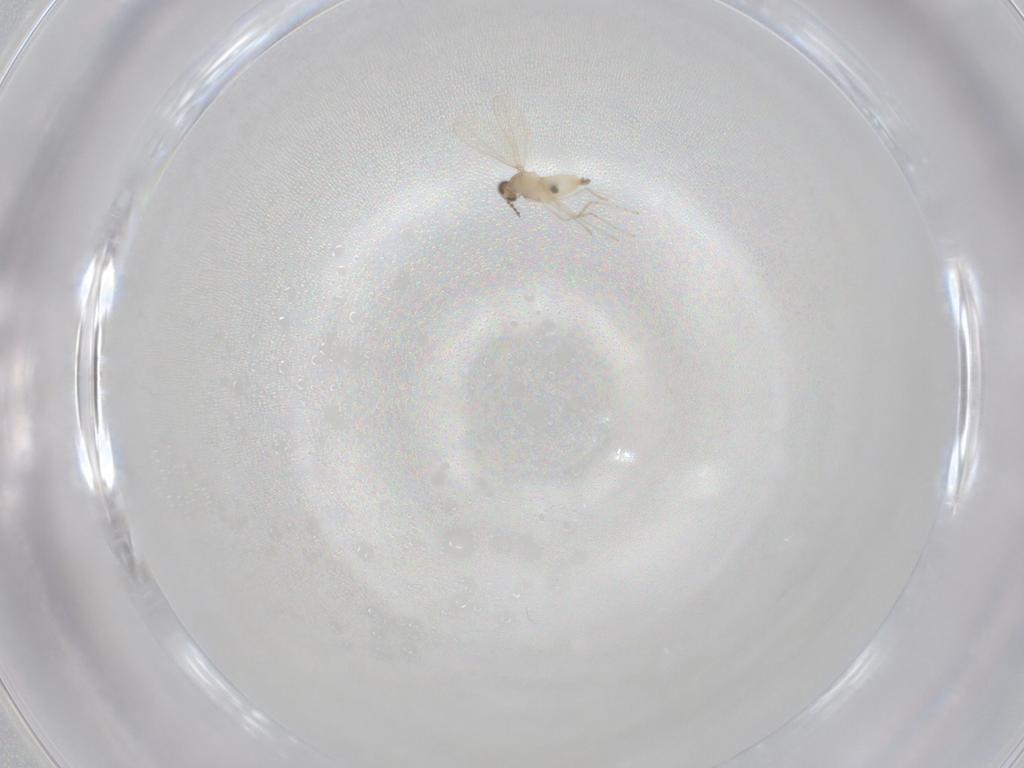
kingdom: Animalia
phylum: Arthropoda
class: Insecta
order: Diptera
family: Cecidomyiidae
